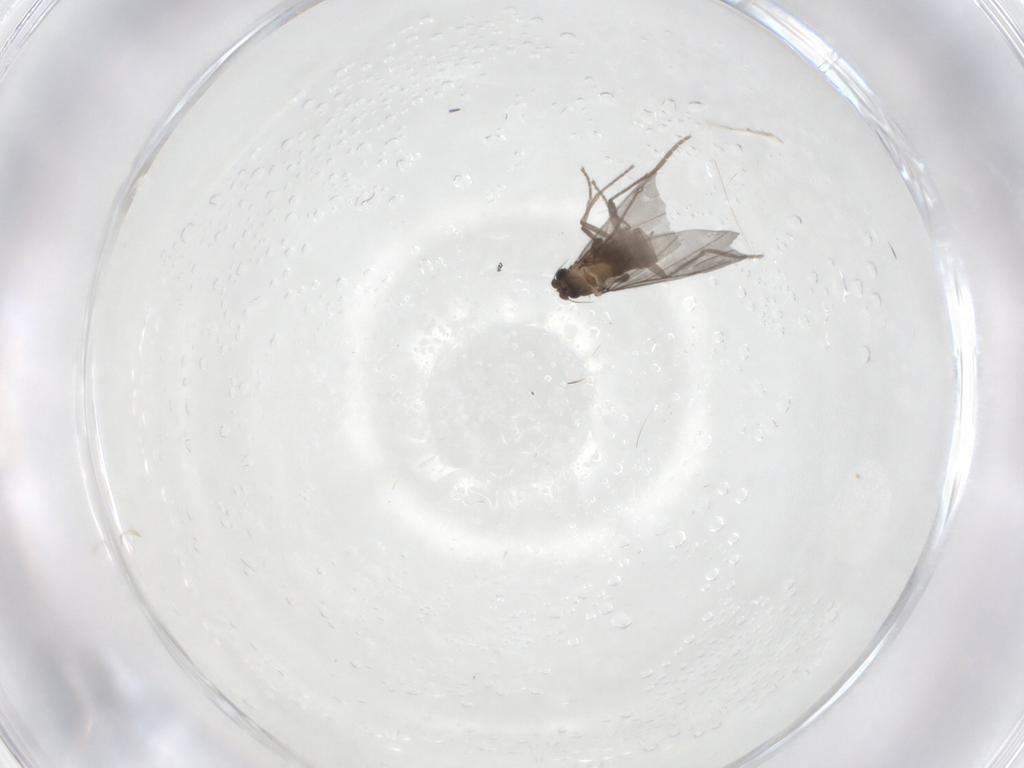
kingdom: Animalia
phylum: Arthropoda
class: Insecta
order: Diptera
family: Phoridae
